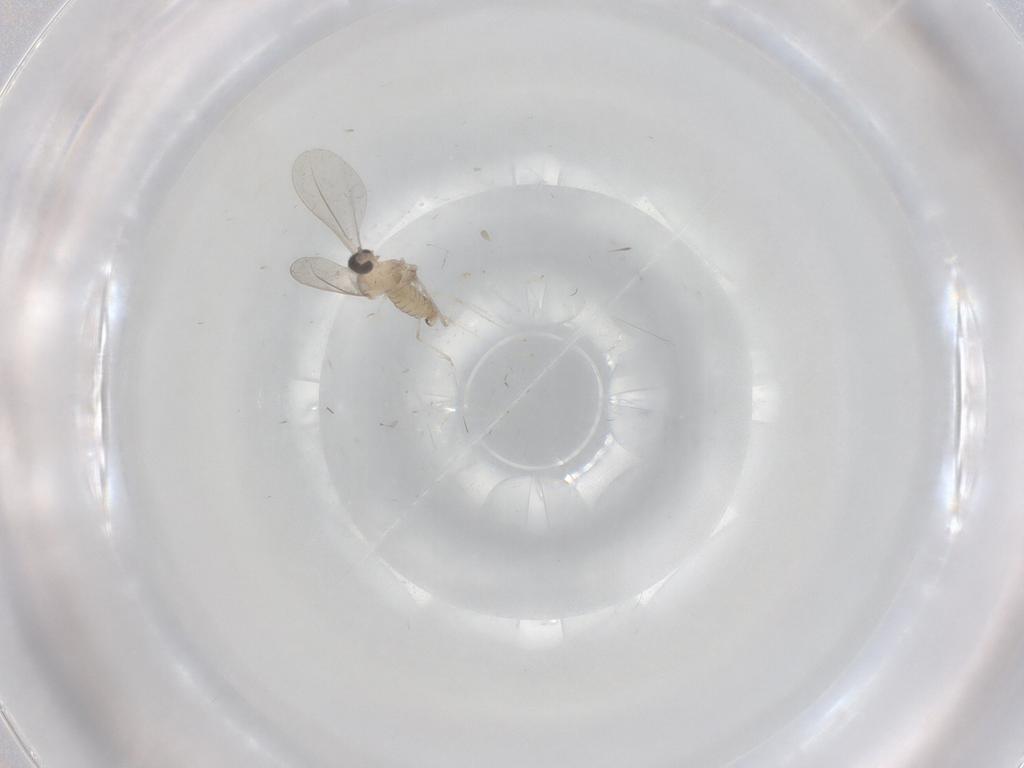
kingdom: Animalia
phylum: Arthropoda
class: Insecta
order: Diptera
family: Cecidomyiidae
